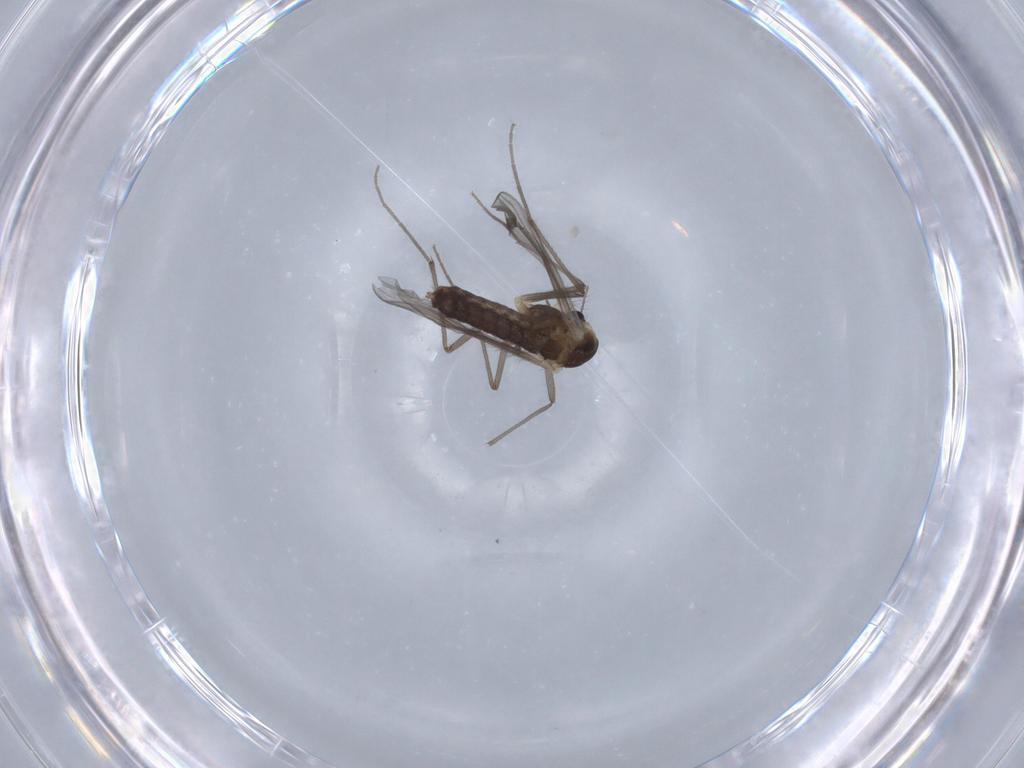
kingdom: Animalia
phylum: Arthropoda
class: Insecta
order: Diptera
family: Chironomidae
